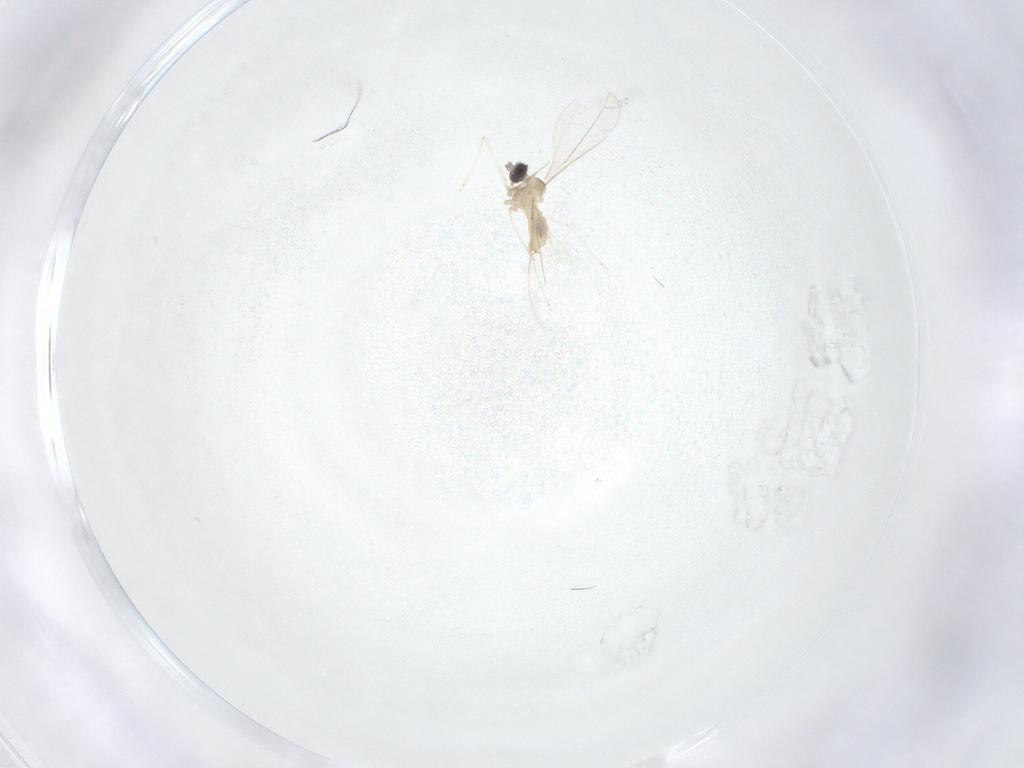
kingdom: Animalia
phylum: Arthropoda
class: Insecta
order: Diptera
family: Cecidomyiidae
